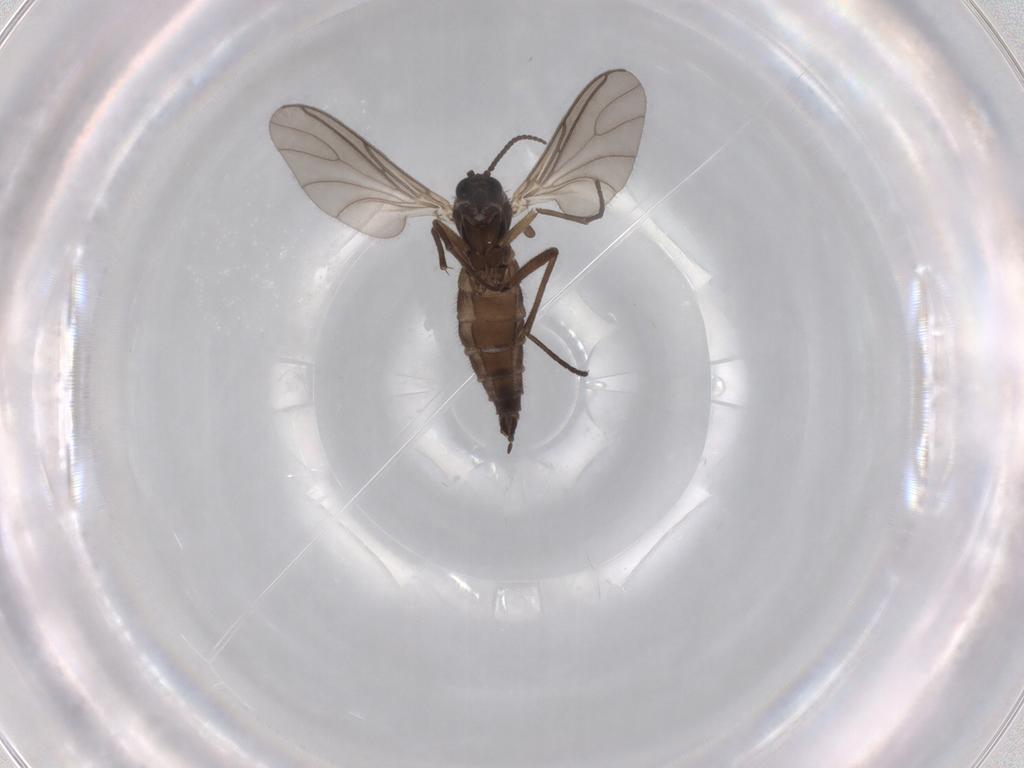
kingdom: Animalia
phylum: Arthropoda
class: Insecta
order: Diptera
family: Sciaridae
